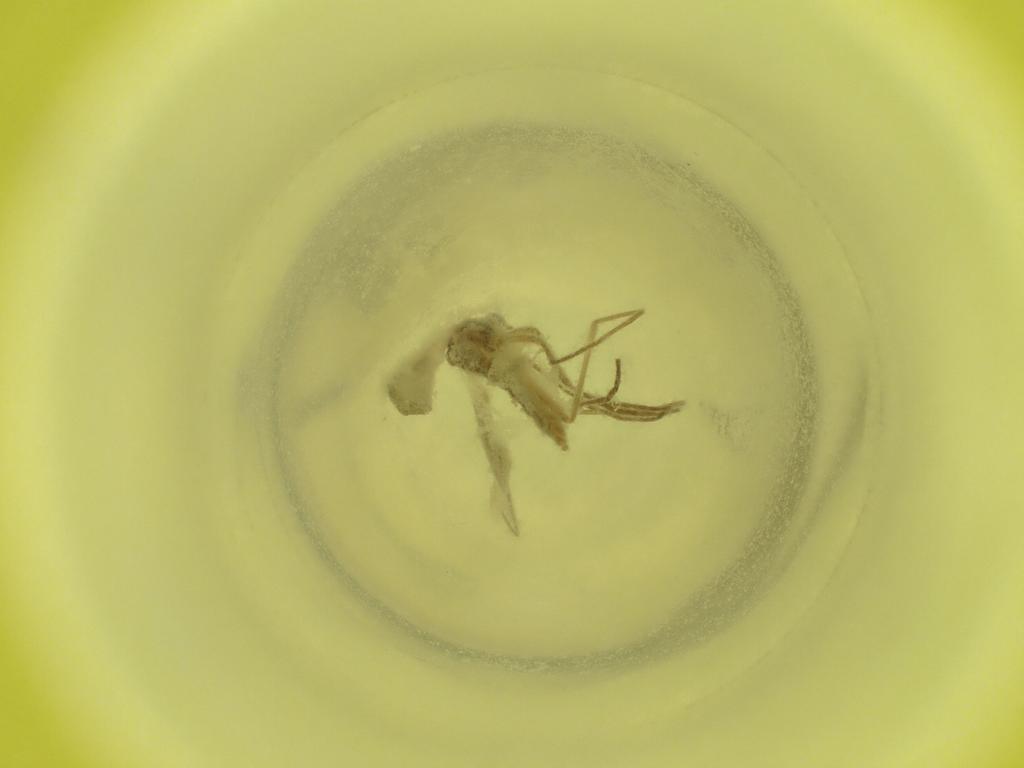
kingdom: Animalia
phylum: Arthropoda
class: Insecta
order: Diptera
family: Cecidomyiidae
